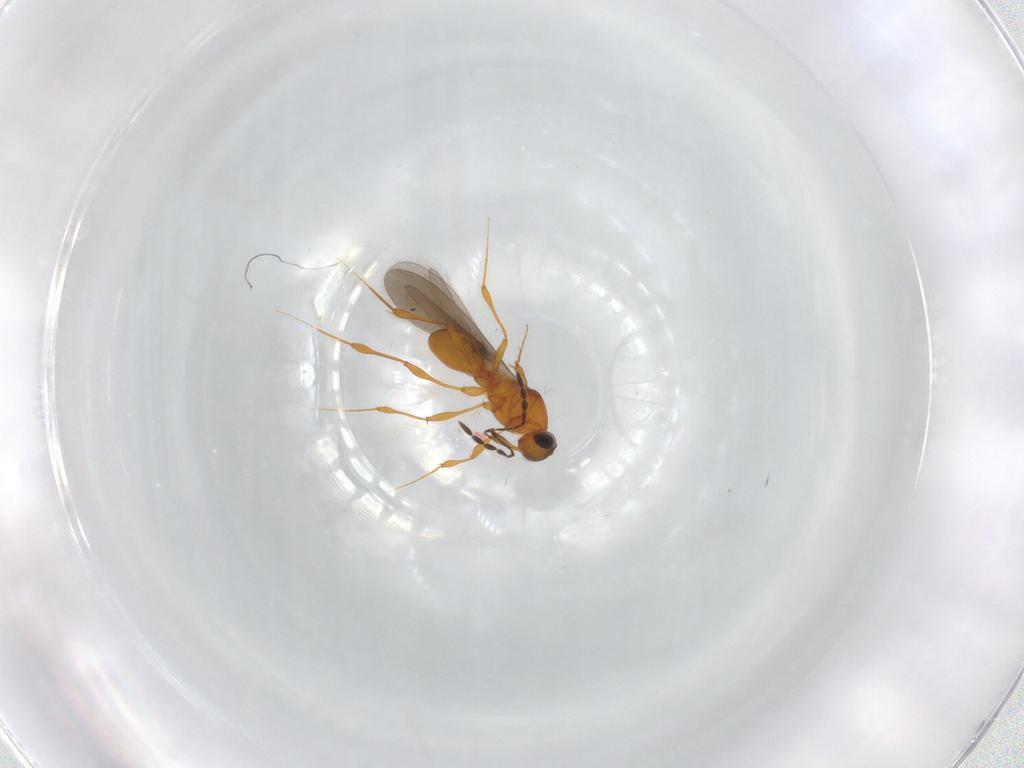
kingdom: Animalia
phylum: Arthropoda
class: Insecta
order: Hymenoptera
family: Platygastridae
